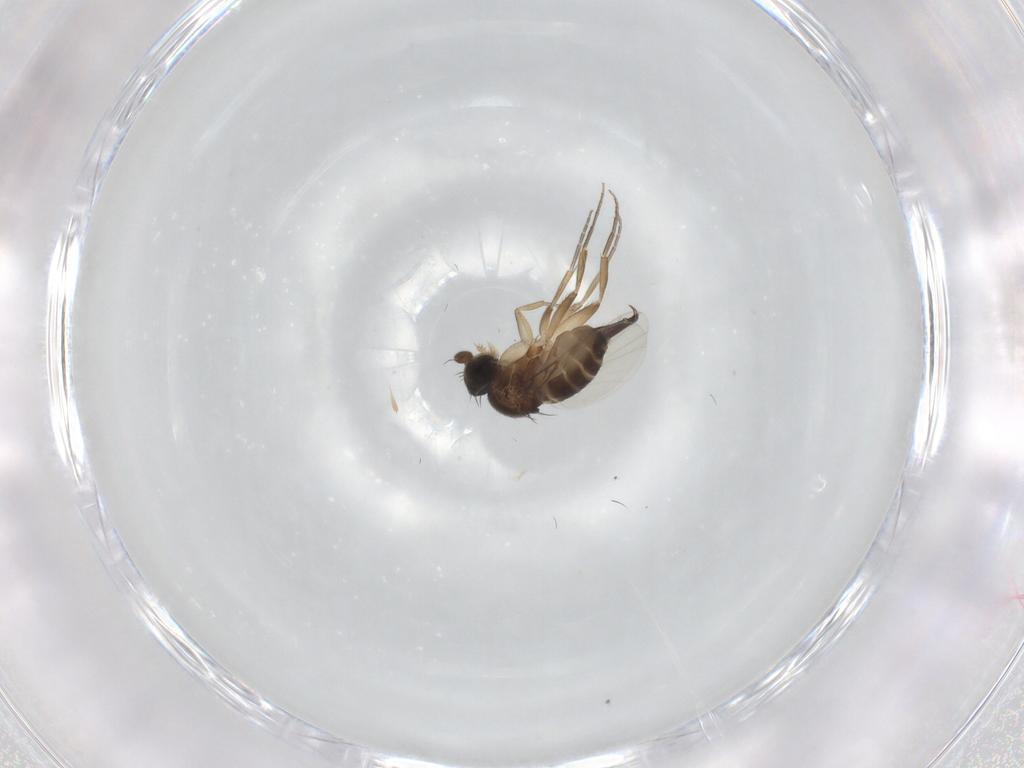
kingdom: Animalia
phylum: Arthropoda
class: Insecta
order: Diptera
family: Phoridae
